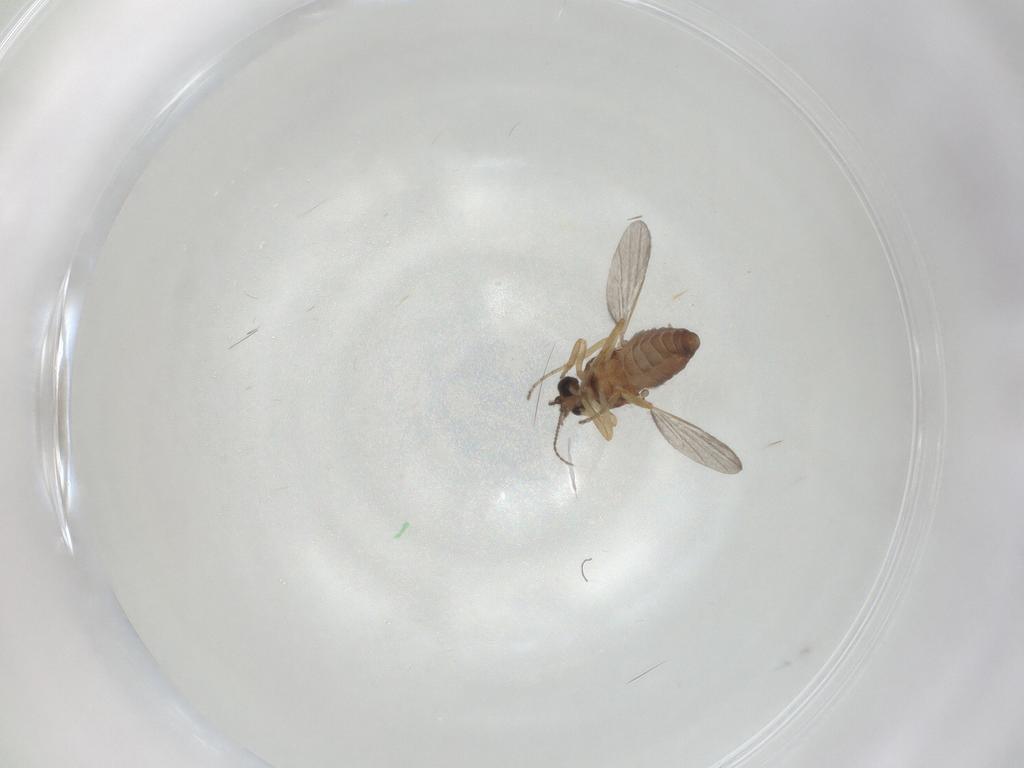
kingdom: Animalia
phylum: Arthropoda
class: Insecta
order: Diptera
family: Ceratopogonidae
